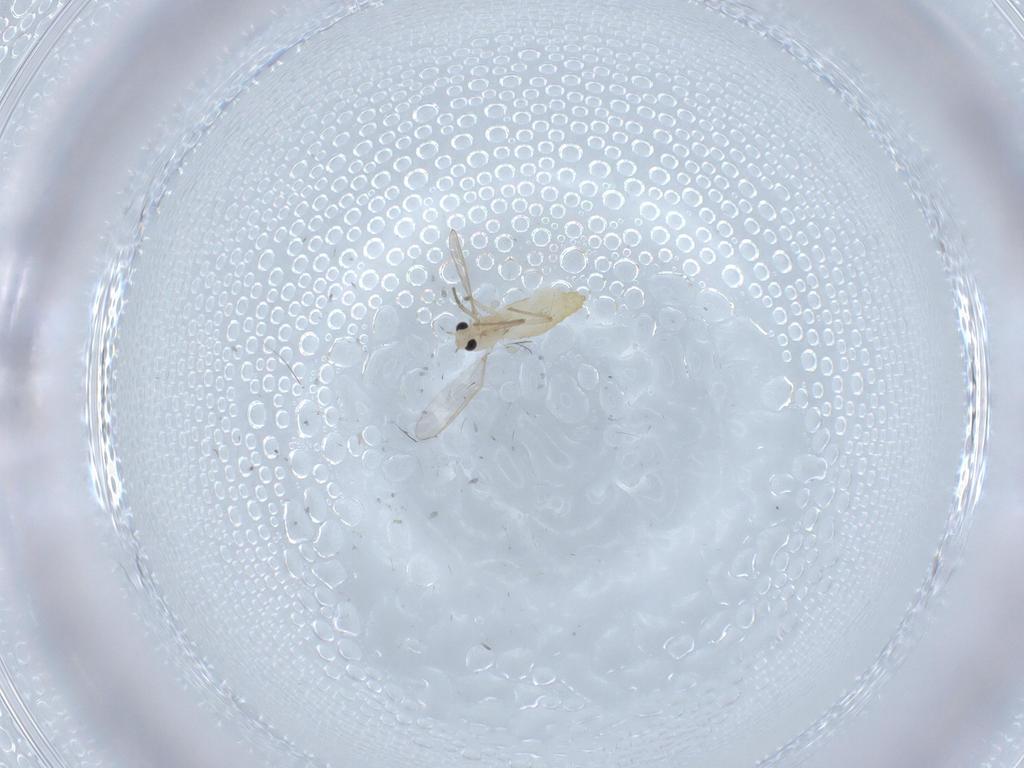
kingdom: Animalia
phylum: Arthropoda
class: Insecta
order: Diptera
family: Chironomidae
